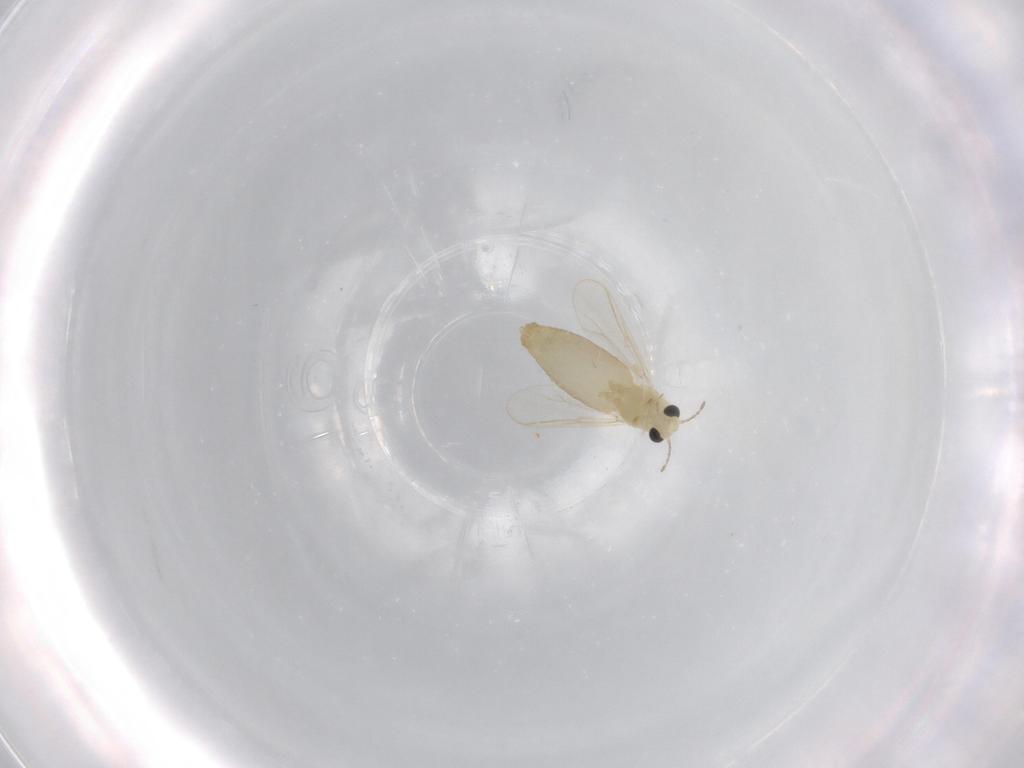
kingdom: Animalia
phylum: Arthropoda
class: Insecta
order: Diptera
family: Chironomidae
